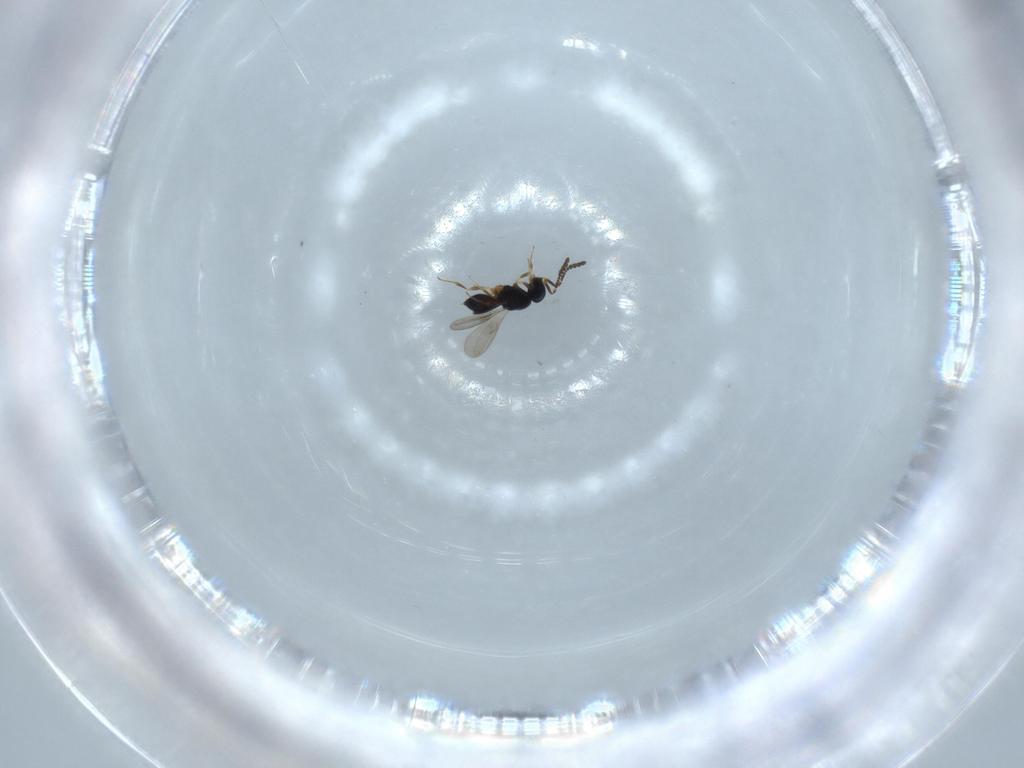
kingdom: Animalia
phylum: Arthropoda
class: Insecta
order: Hymenoptera
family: Scelionidae
